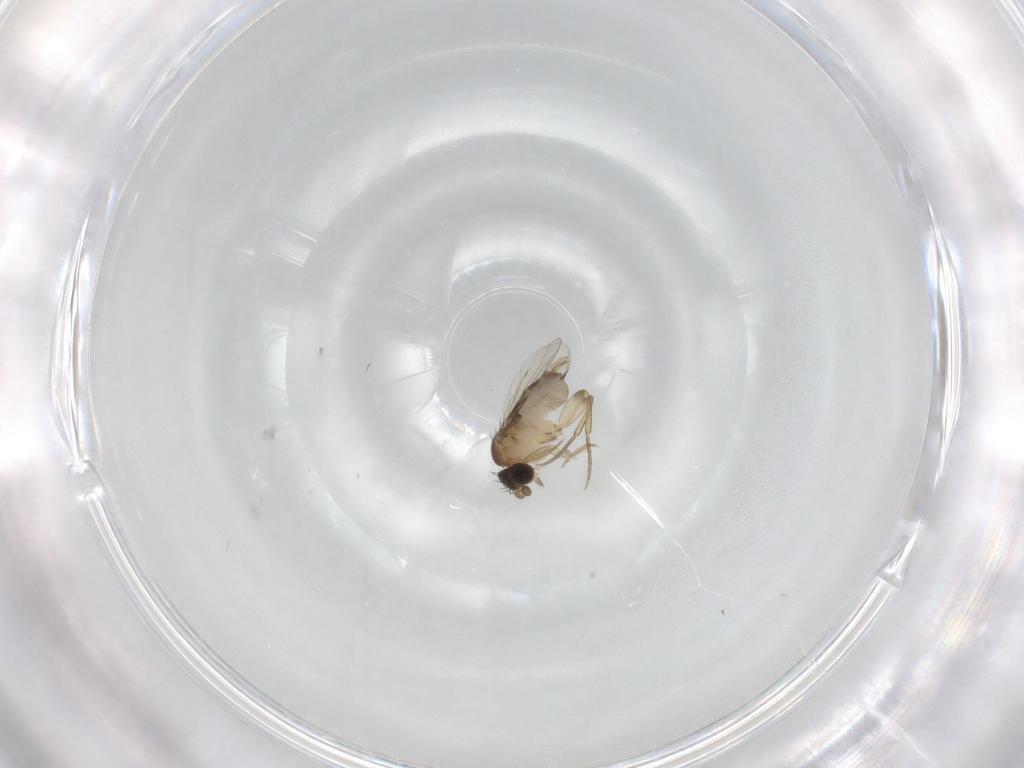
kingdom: Animalia
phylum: Arthropoda
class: Insecta
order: Diptera
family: Phoridae
